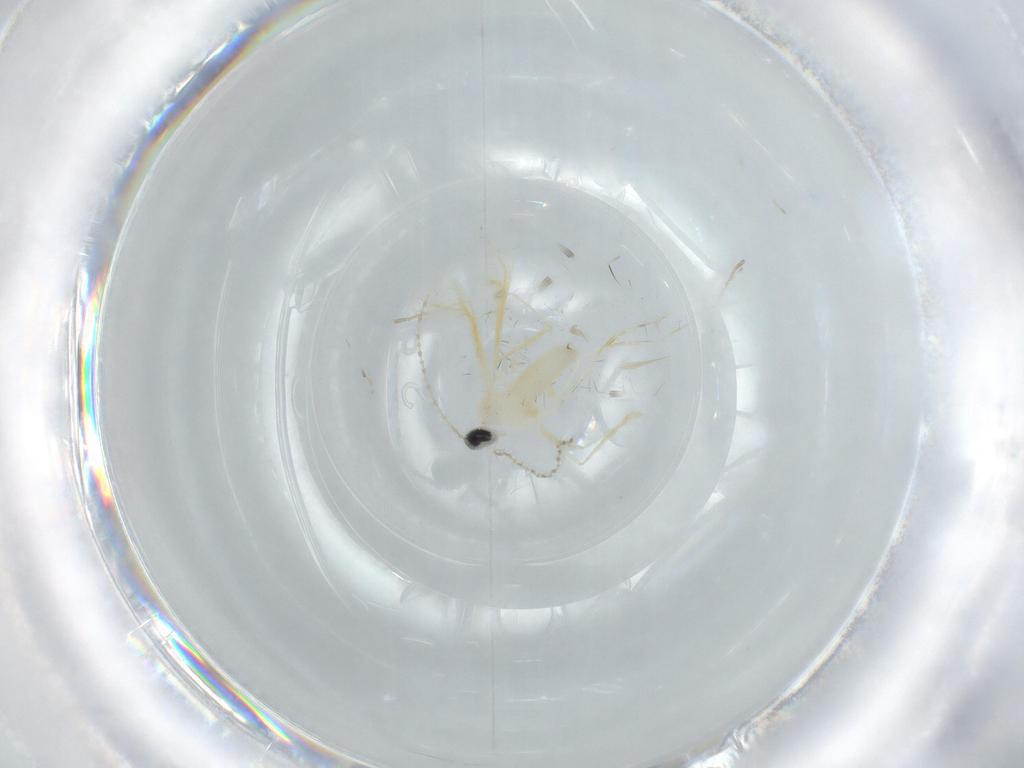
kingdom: Animalia
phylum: Arthropoda
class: Insecta
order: Diptera
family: Cecidomyiidae
